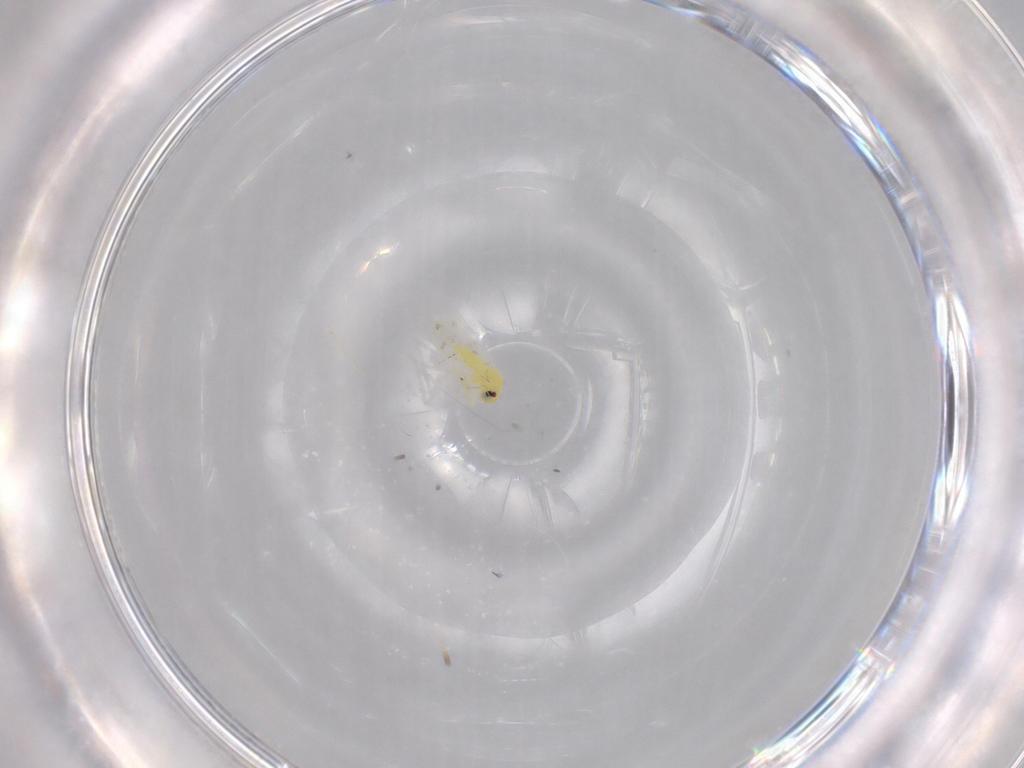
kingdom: Animalia
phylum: Arthropoda
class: Insecta
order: Hemiptera
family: Aleyrodidae
